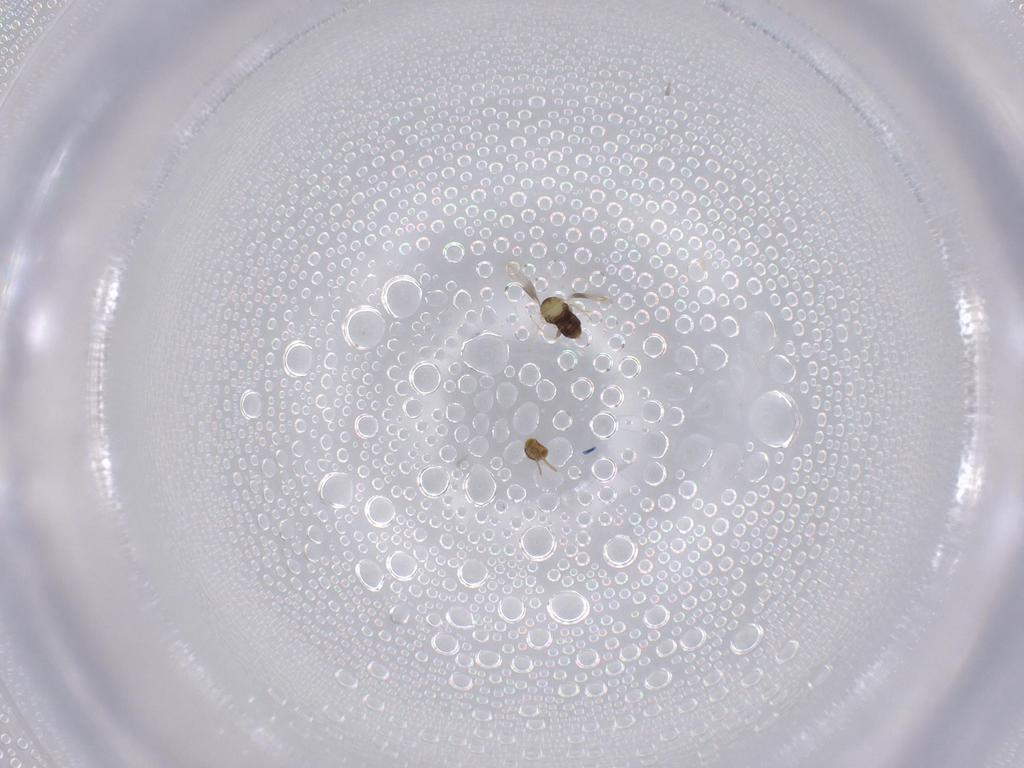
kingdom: Animalia
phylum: Arthropoda
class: Insecta
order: Hymenoptera
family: Aphelinidae
